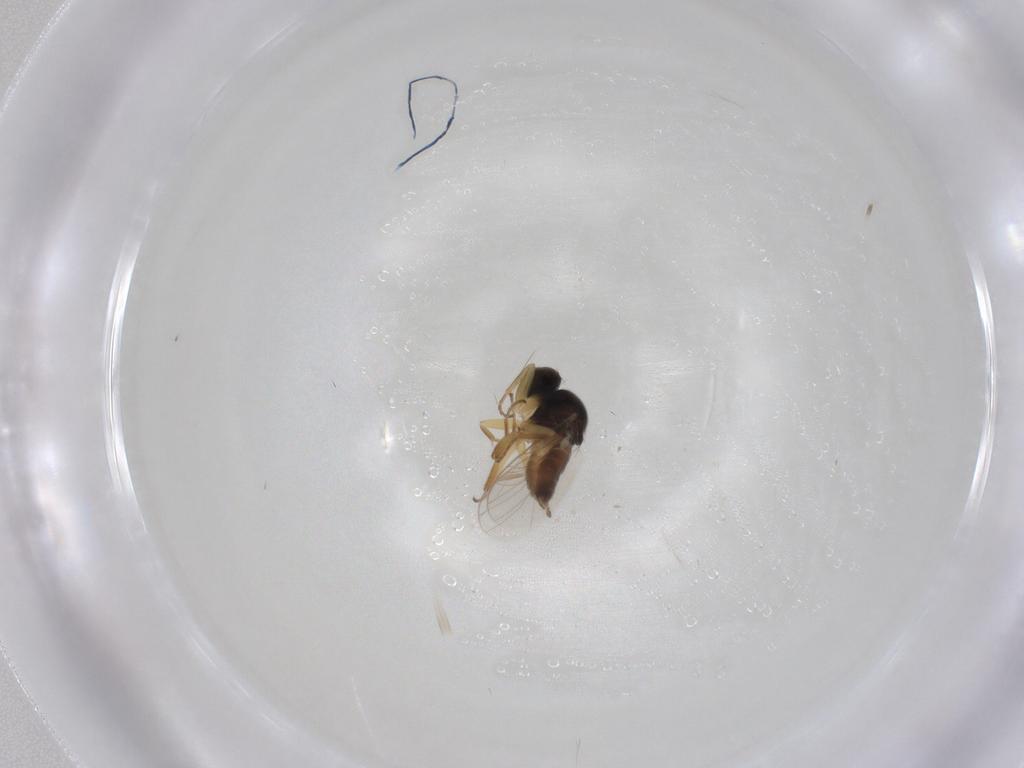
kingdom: Animalia
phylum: Arthropoda
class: Insecta
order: Diptera
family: Hybotidae
